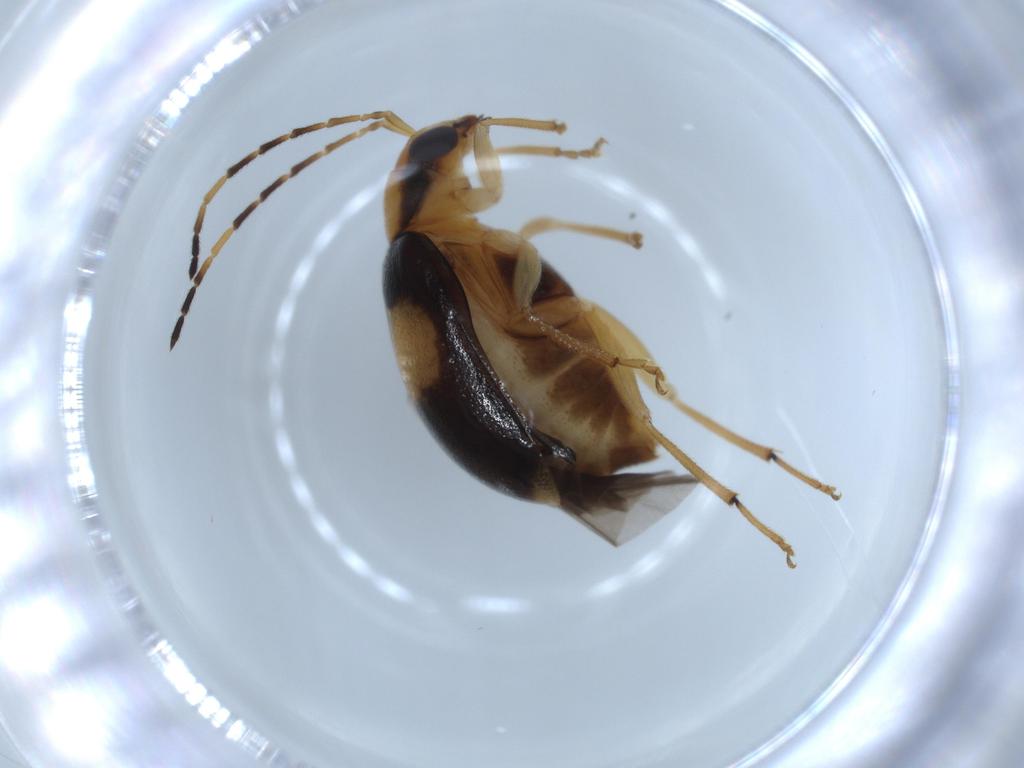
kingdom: Animalia
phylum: Arthropoda
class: Insecta
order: Coleoptera
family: Chrysomelidae
